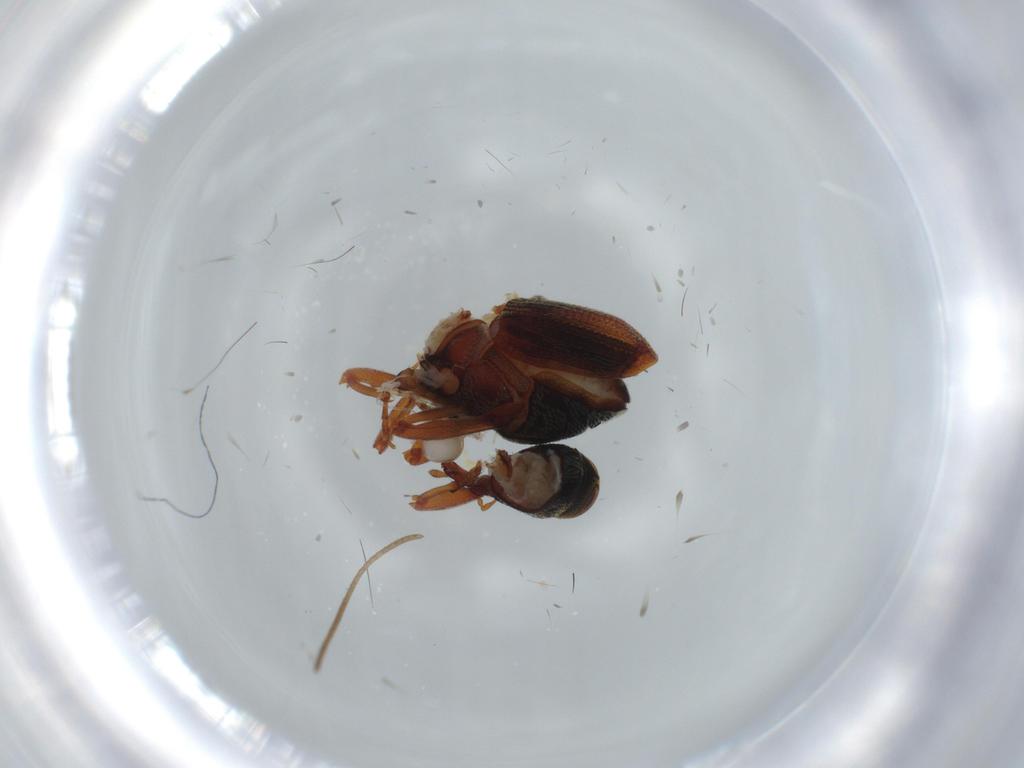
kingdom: Animalia
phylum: Arthropoda
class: Insecta
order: Coleoptera
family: Curculionidae
